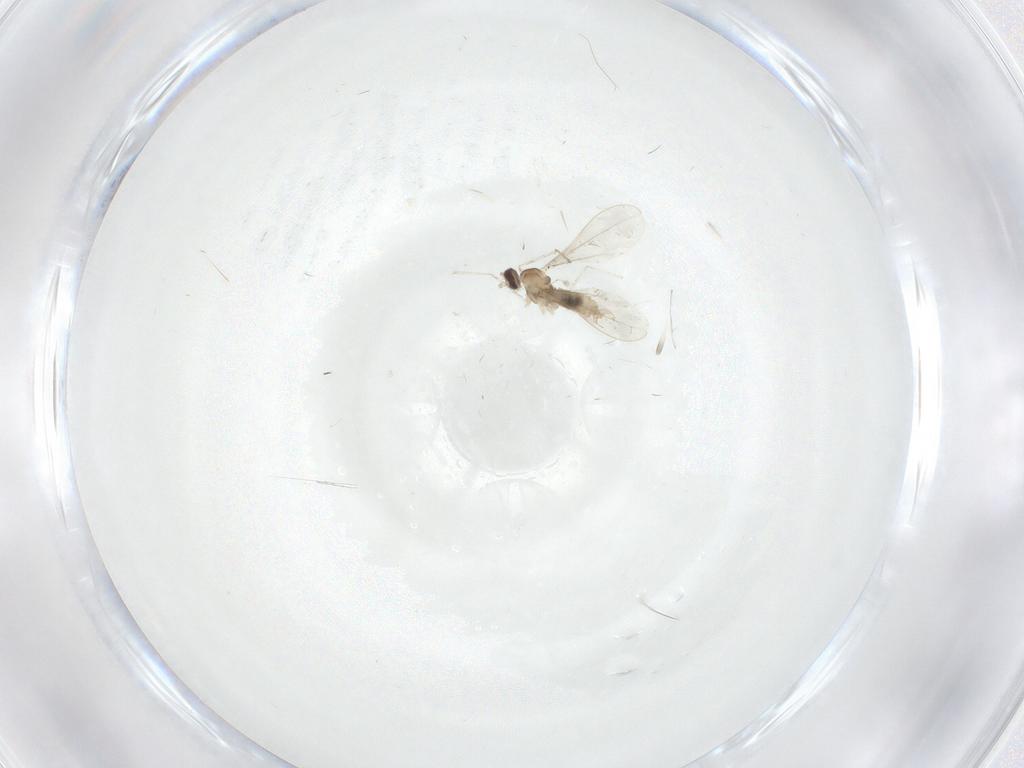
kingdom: Animalia
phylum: Arthropoda
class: Insecta
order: Diptera
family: Cecidomyiidae
